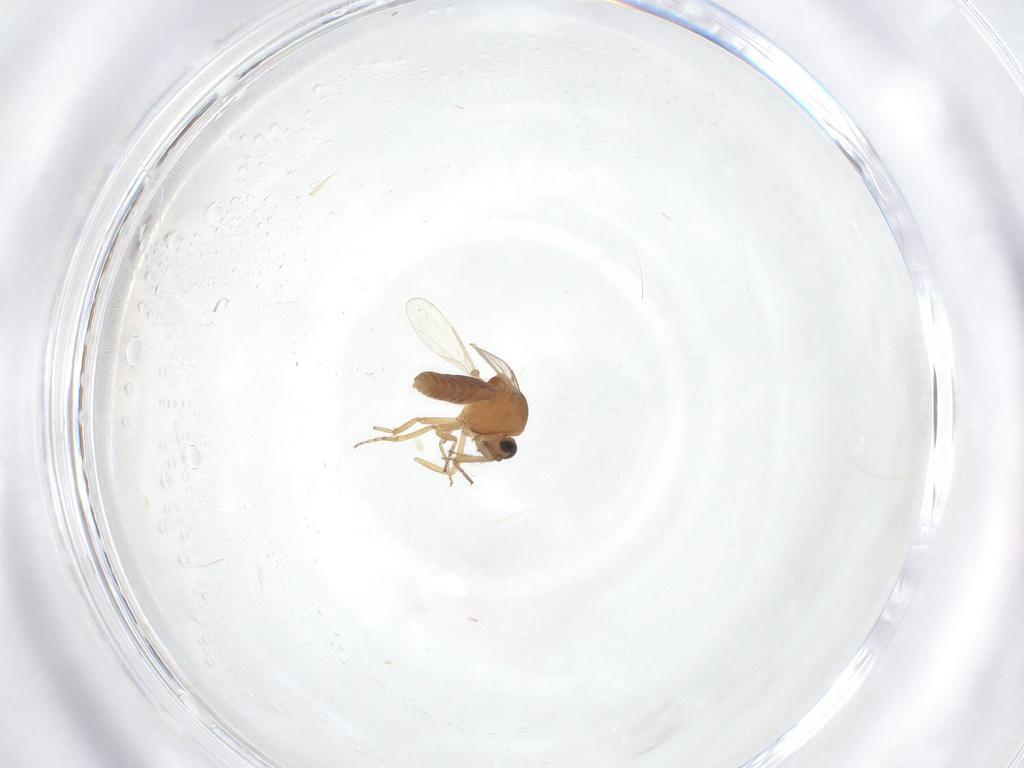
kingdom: Animalia
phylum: Arthropoda
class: Insecta
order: Diptera
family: Ceratopogonidae
